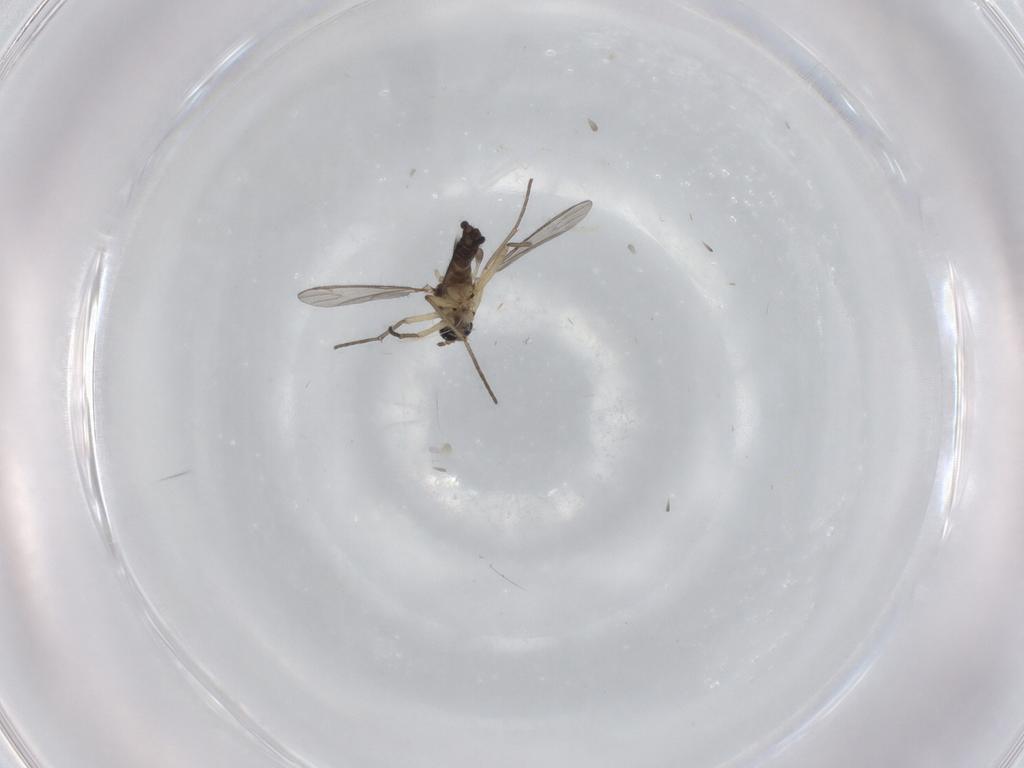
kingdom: Animalia
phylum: Arthropoda
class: Insecta
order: Diptera
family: Cecidomyiidae
